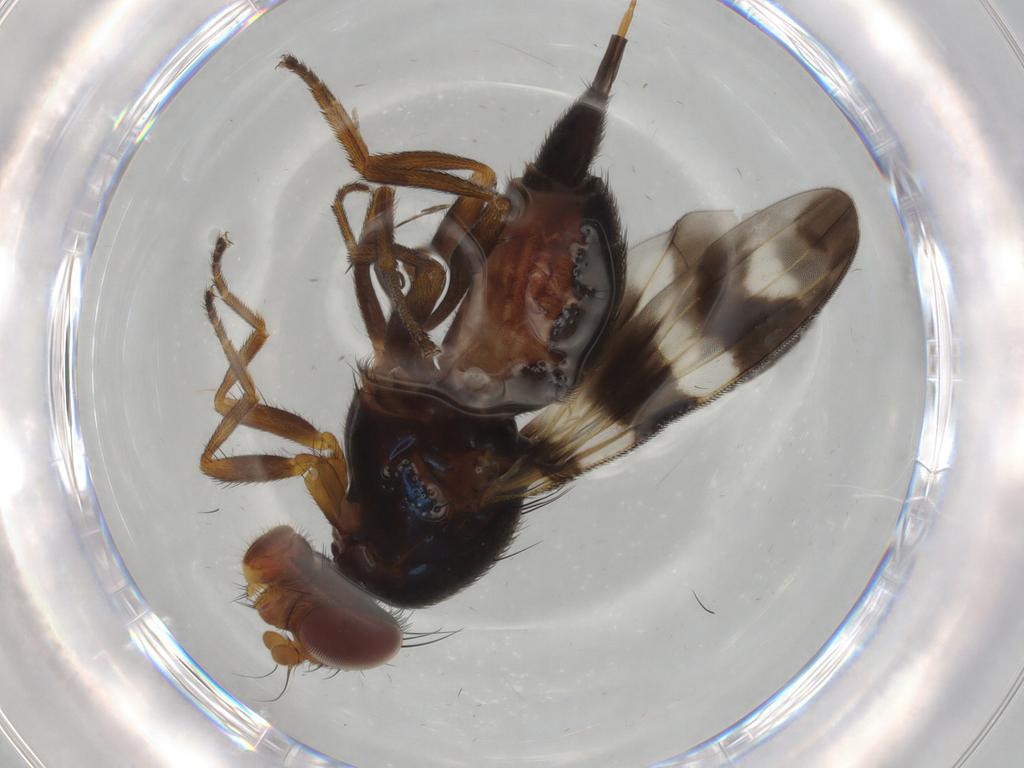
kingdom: Animalia
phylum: Arthropoda
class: Insecta
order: Diptera
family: Ulidiidae
